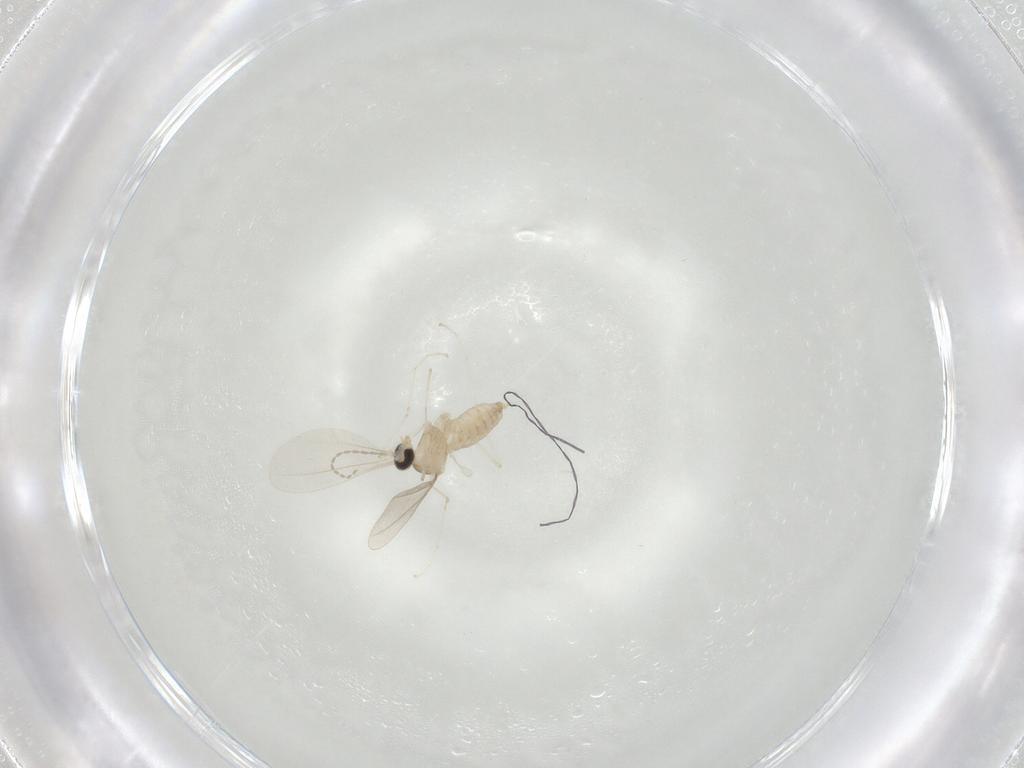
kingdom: Animalia
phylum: Arthropoda
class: Insecta
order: Diptera
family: Cecidomyiidae
